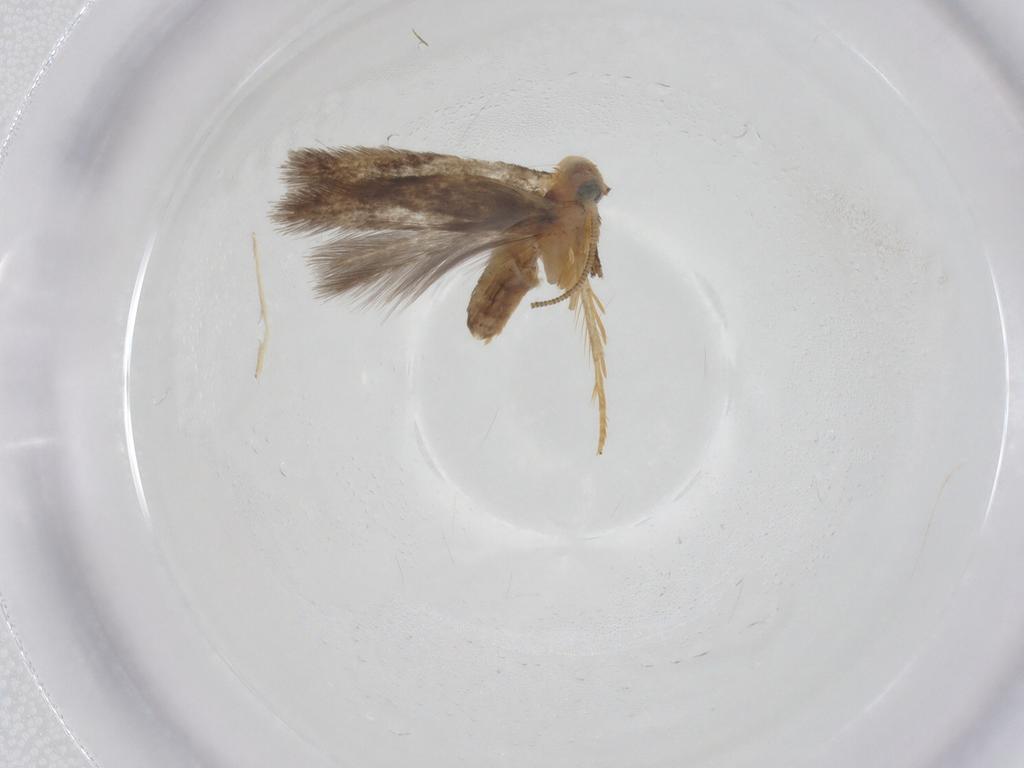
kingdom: Animalia
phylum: Arthropoda
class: Insecta
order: Lepidoptera
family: Nepticulidae
